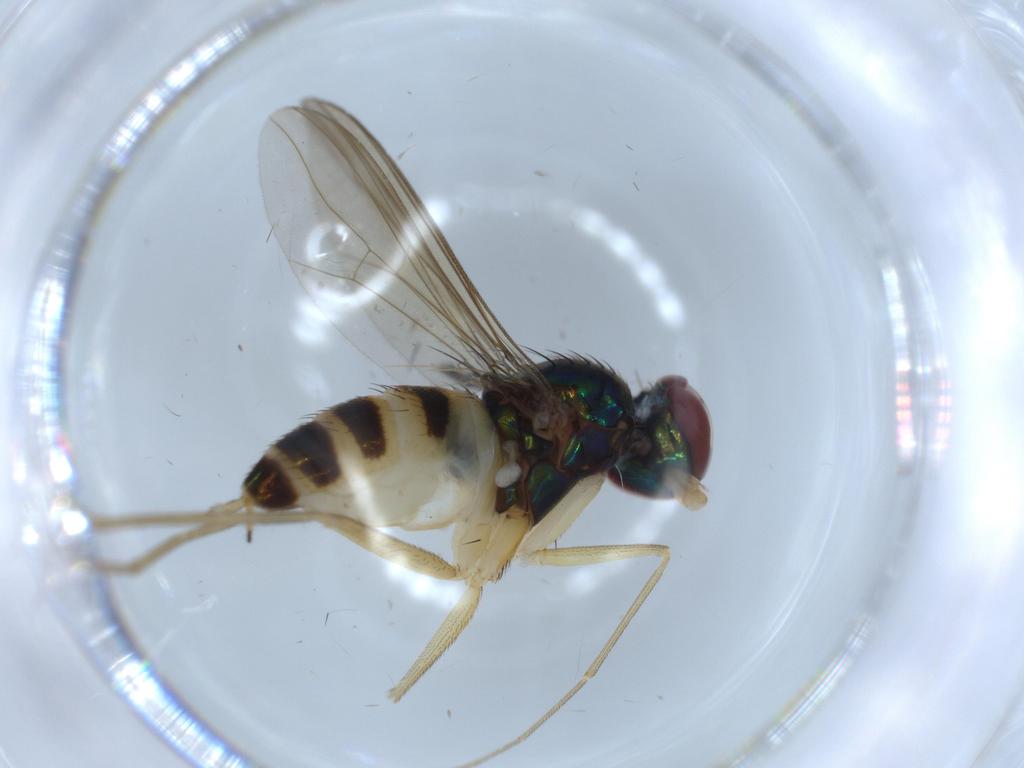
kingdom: Animalia
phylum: Arthropoda
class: Insecta
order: Diptera
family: Dolichopodidae
